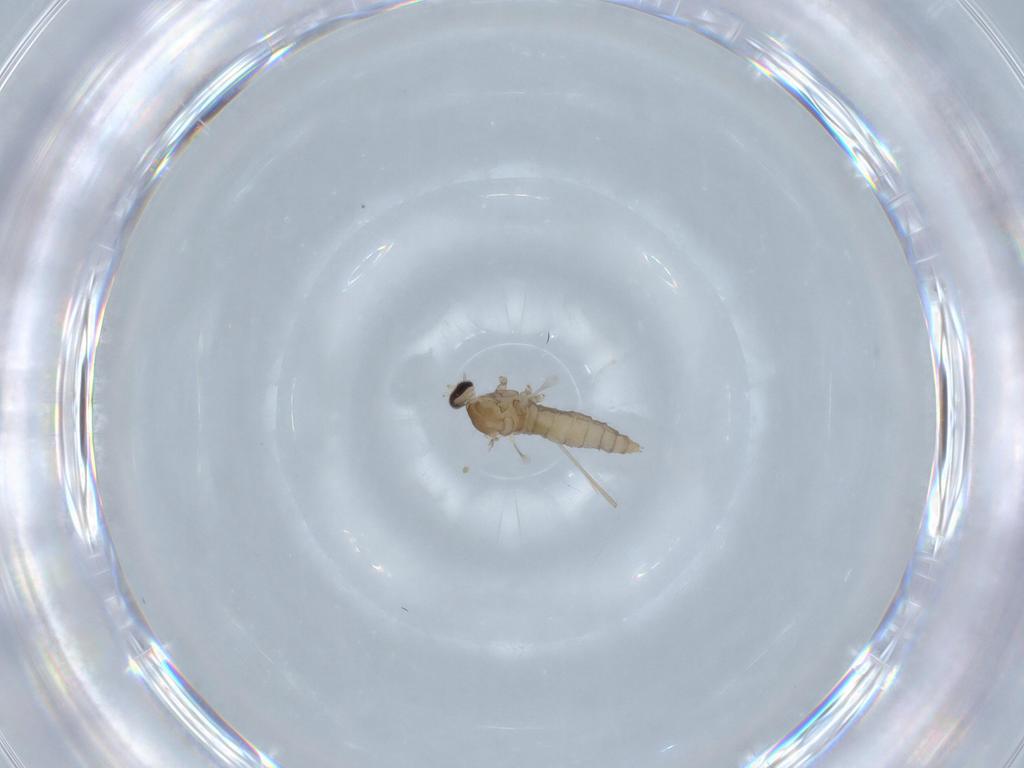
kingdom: Animalia
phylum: Arthropoda
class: Insecta
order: Diptera
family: Cecidomyiidae
